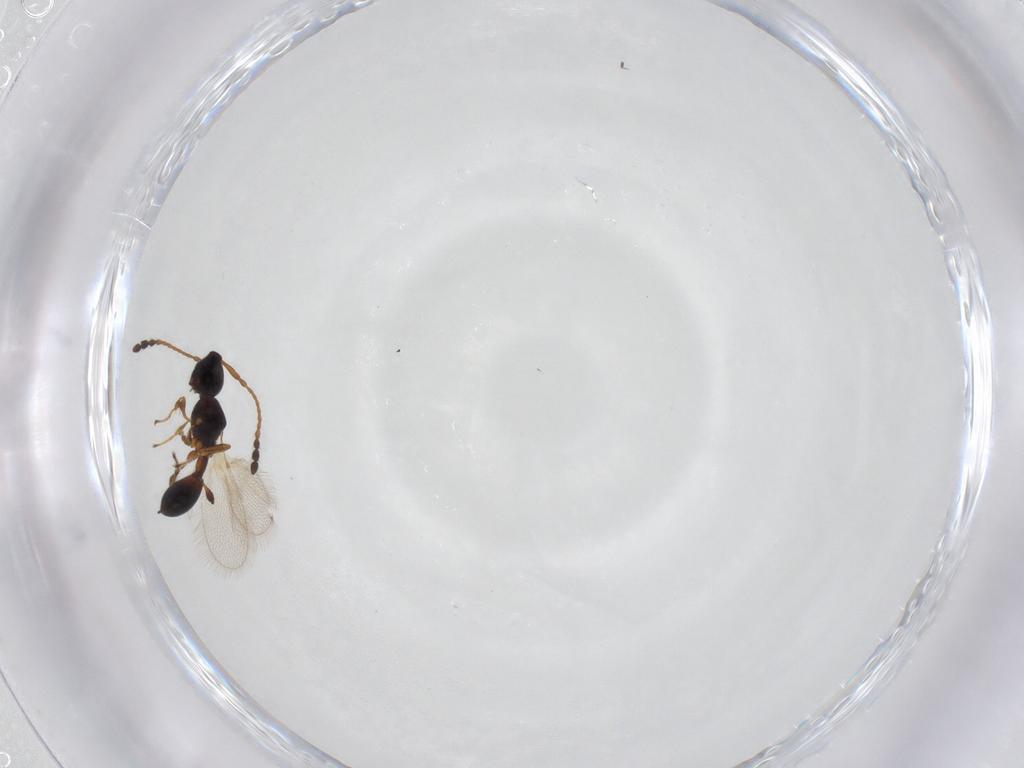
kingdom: Animalia
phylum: Arthropoda
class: Insecta
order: Hymenoptera
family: Diapriidae
